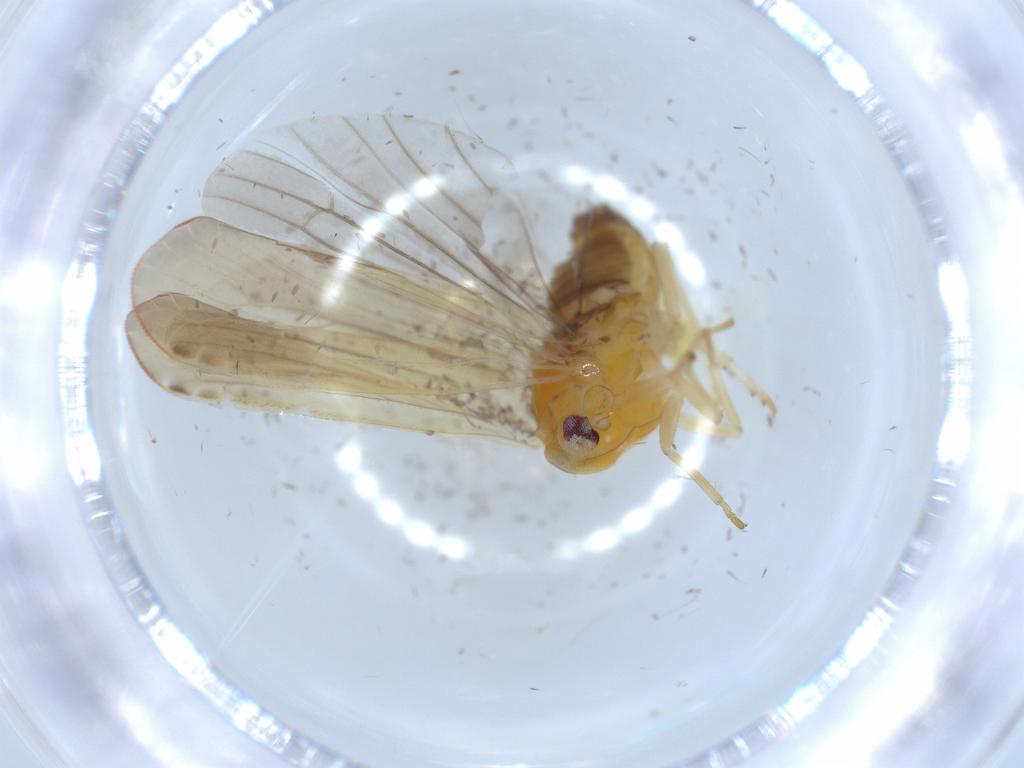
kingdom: Animalia
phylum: Arthropoda
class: Insecta
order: Hemiptera
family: Aleyrodidae
